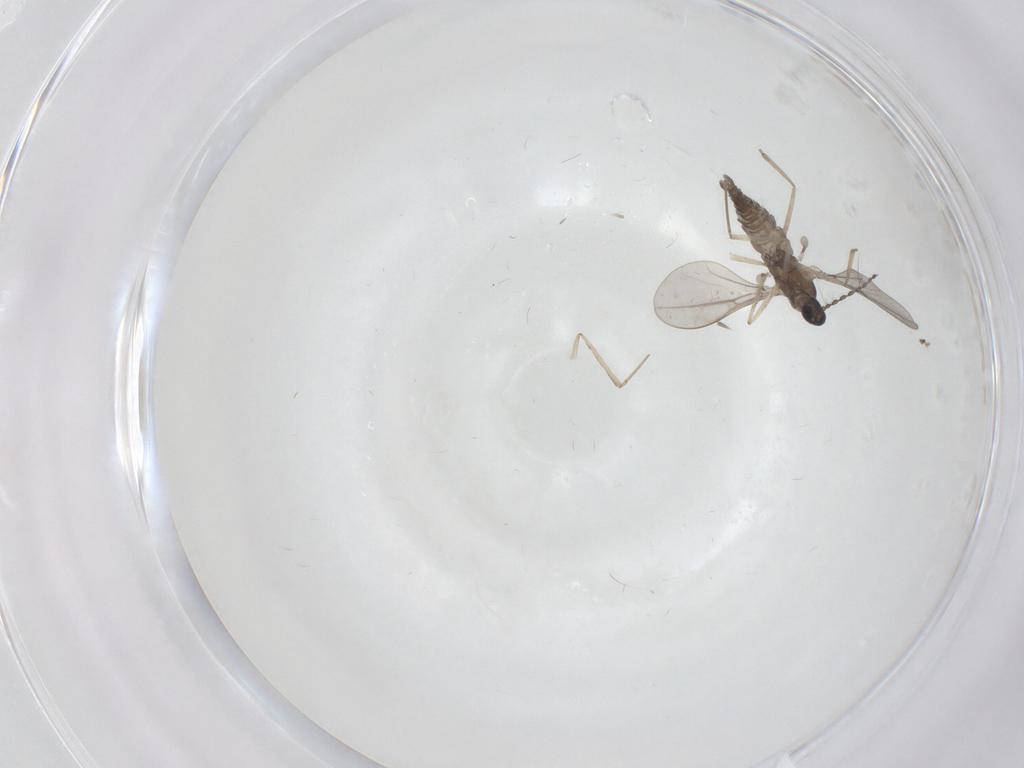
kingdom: Animalia
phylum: Arthropoda
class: Insecta
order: Diptera
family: Cecidomyiidae
